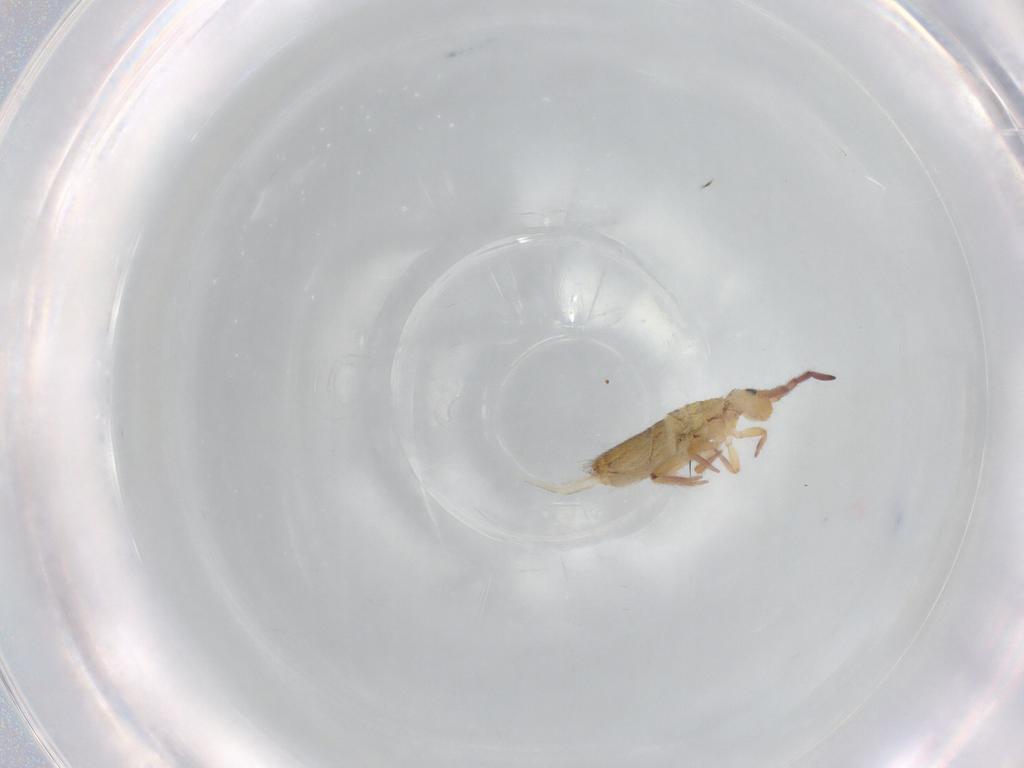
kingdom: Animalia
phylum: Arthropoda
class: Collembola
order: Entomobryomorpha
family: Entomobryidae
